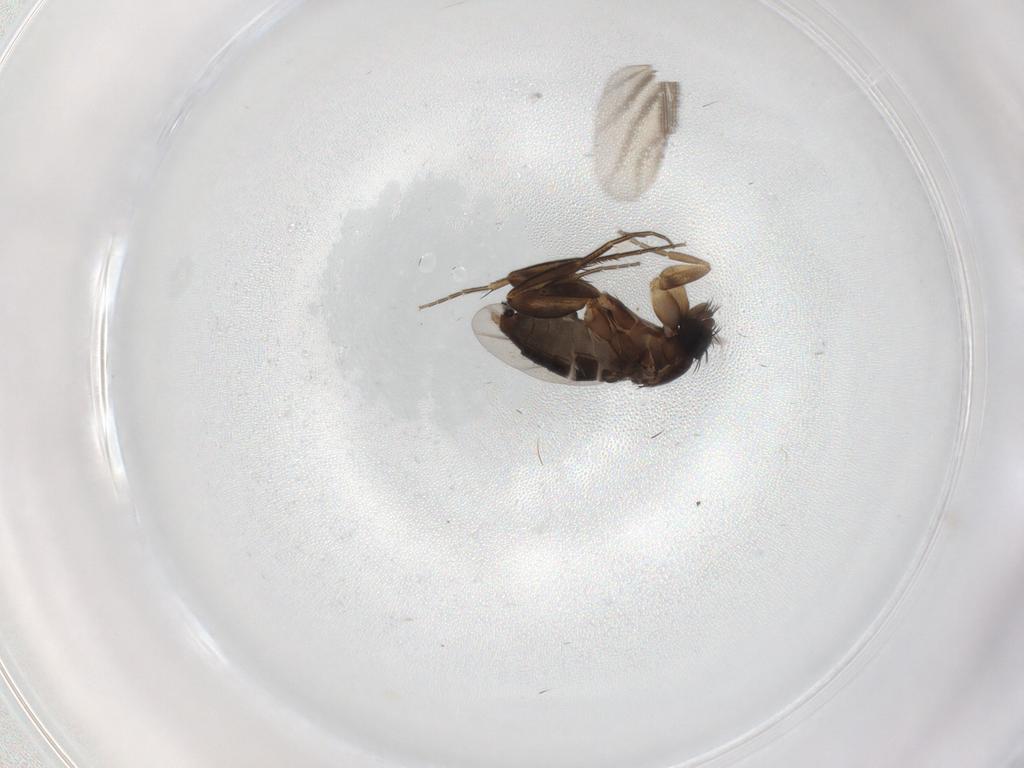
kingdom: Animalia
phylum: Arthropoda
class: Insecta
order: Diptera
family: Phoridae
